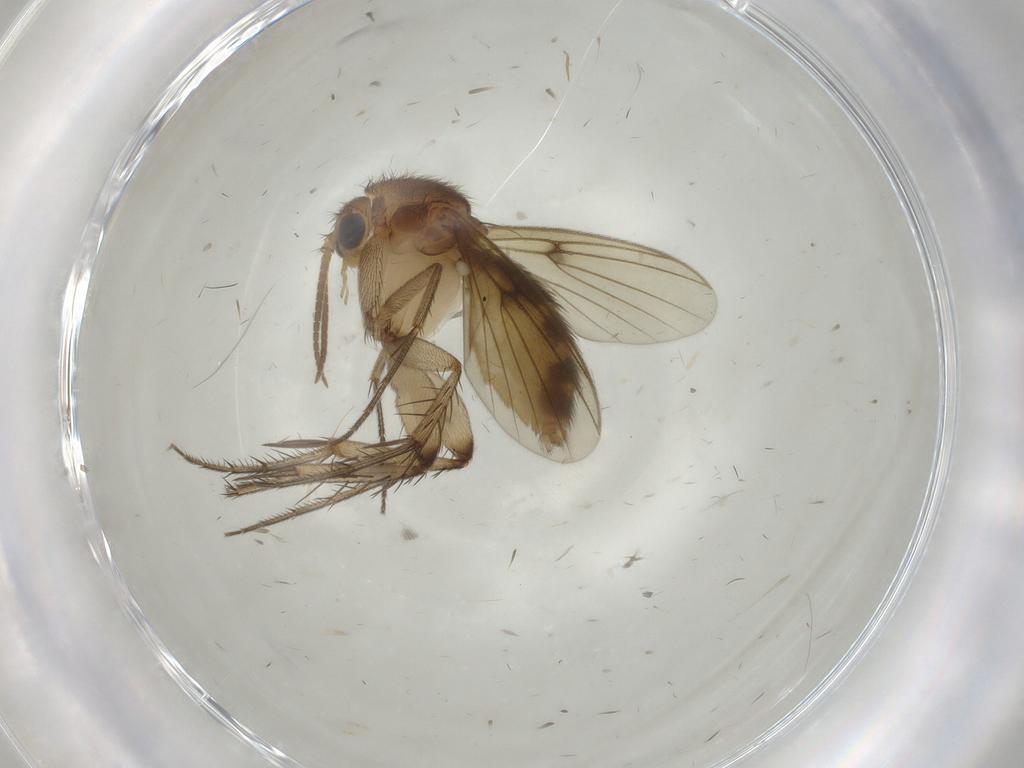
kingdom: Animalia
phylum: Arthropoda
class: Insecta
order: Diptera
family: Mycetophilidae
